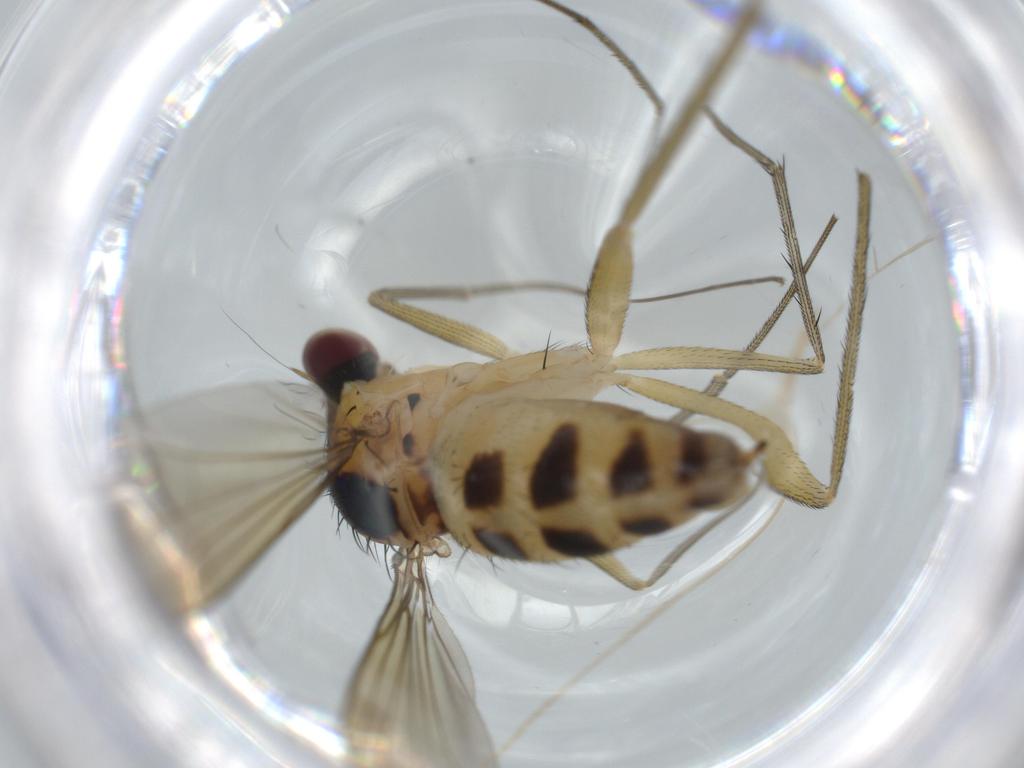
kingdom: Animalia
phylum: Arthropoda
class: Insecta
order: Diptera
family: Dolichopodidae
